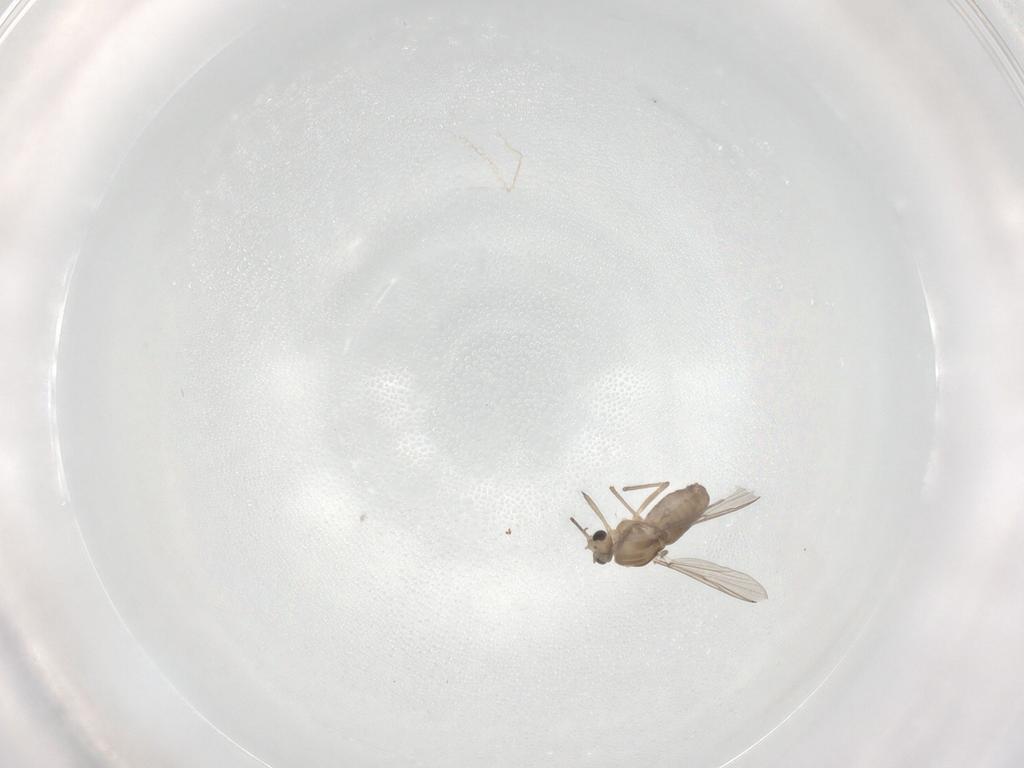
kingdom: Animalia
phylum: Arthropoda
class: Insecta
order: Diptera
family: Chironomidae
